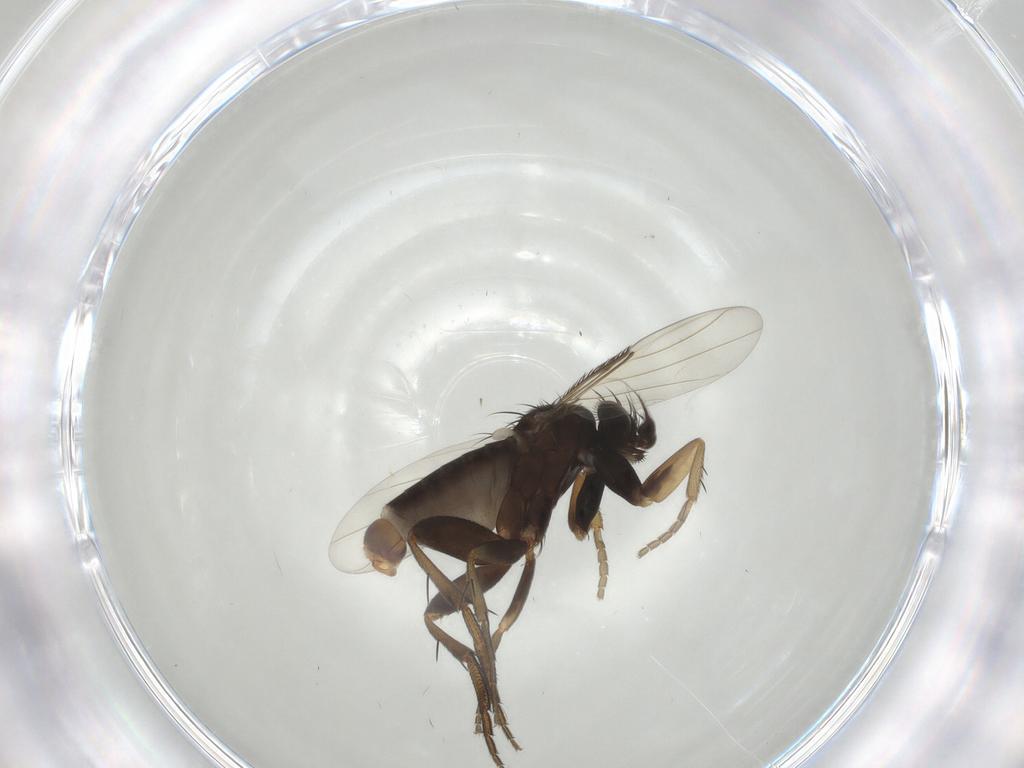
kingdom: Animalia
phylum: Arthropoda
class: Insecta
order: Diptera
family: Phoridae
